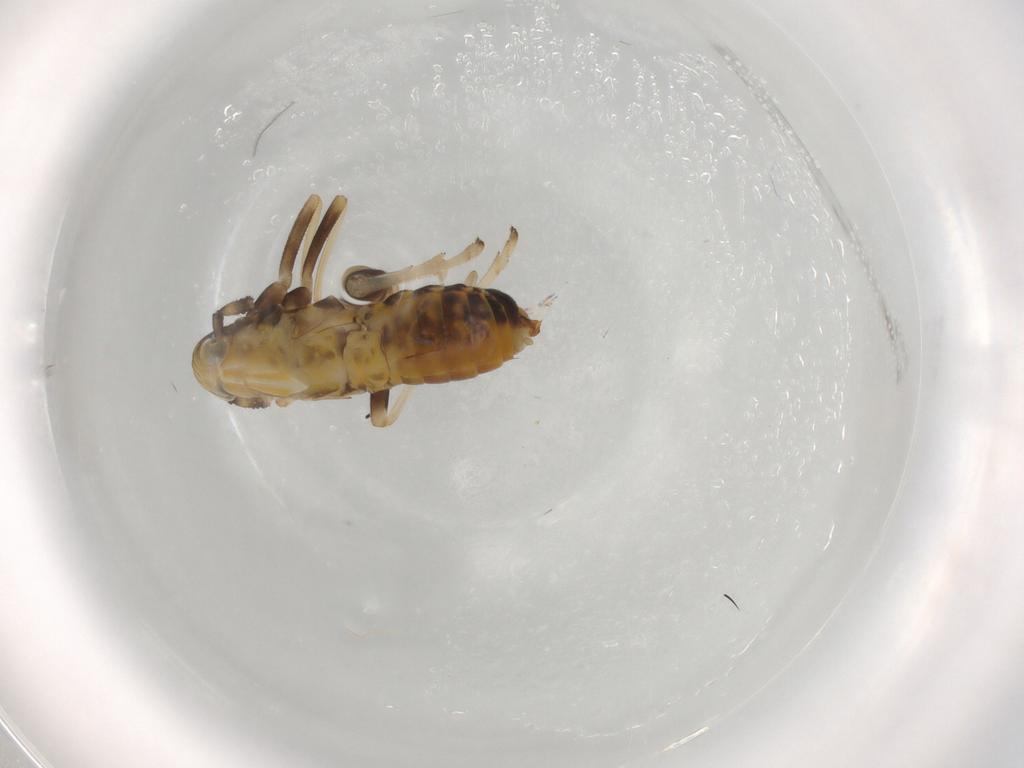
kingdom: Animalia
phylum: Arthropoda
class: Insecta
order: Hemiptera
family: Delphacidae
